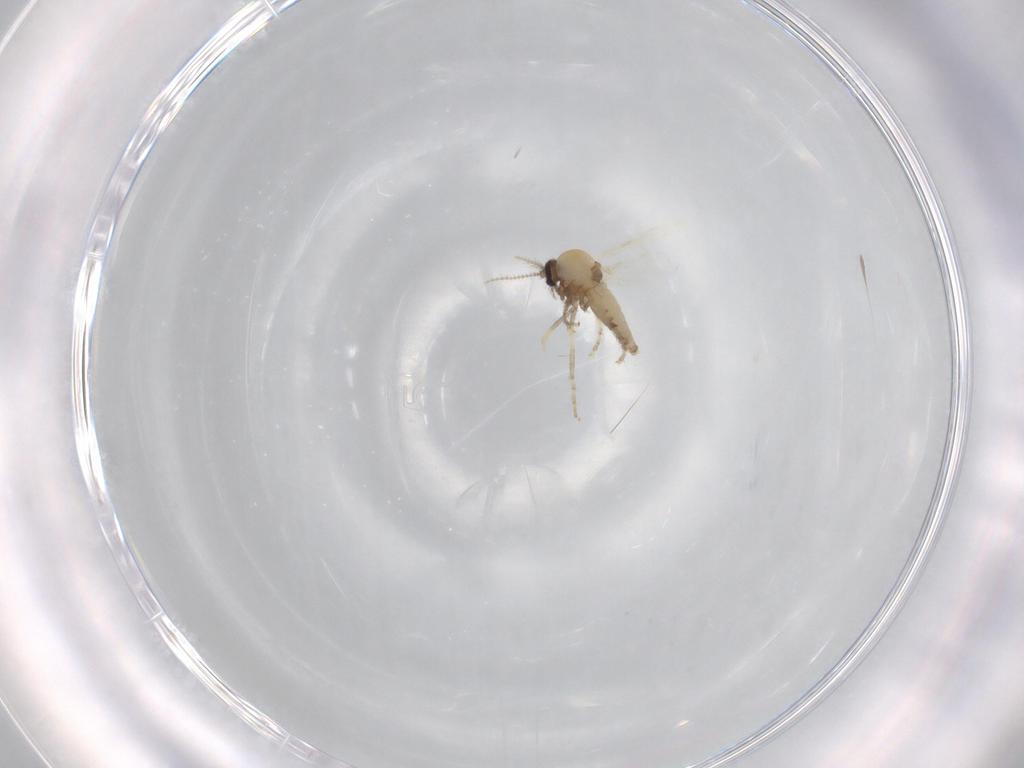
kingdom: Animalia
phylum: Arthropoda
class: Insecta
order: Diptera
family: Ceratopogonidae
